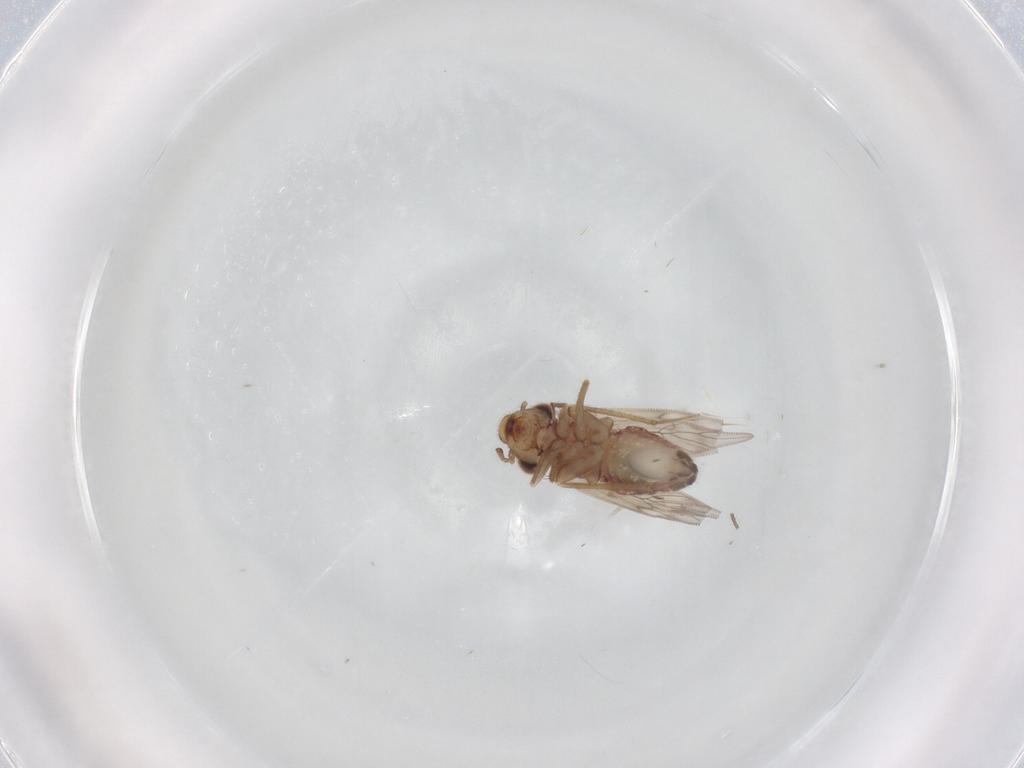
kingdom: Animalia
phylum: Arthropoda
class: Insecta
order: Psocodea
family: Lepidopsocidae
